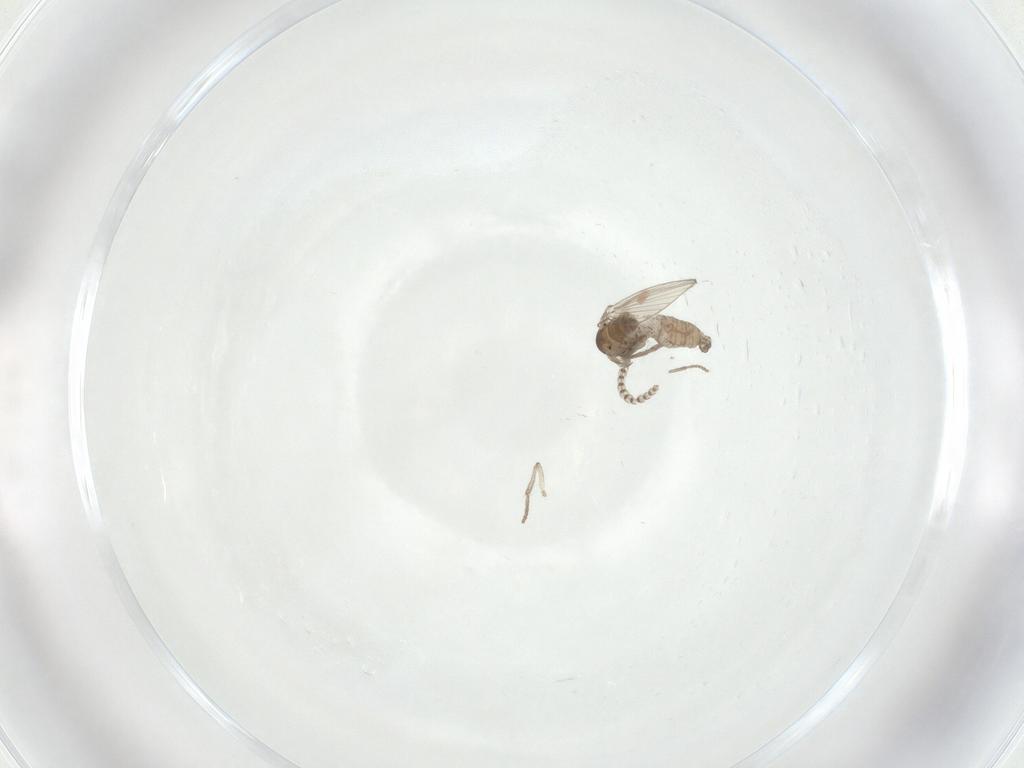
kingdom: Animalia
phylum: Arthropoda
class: Insecta
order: Diptera
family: Psychodidae
